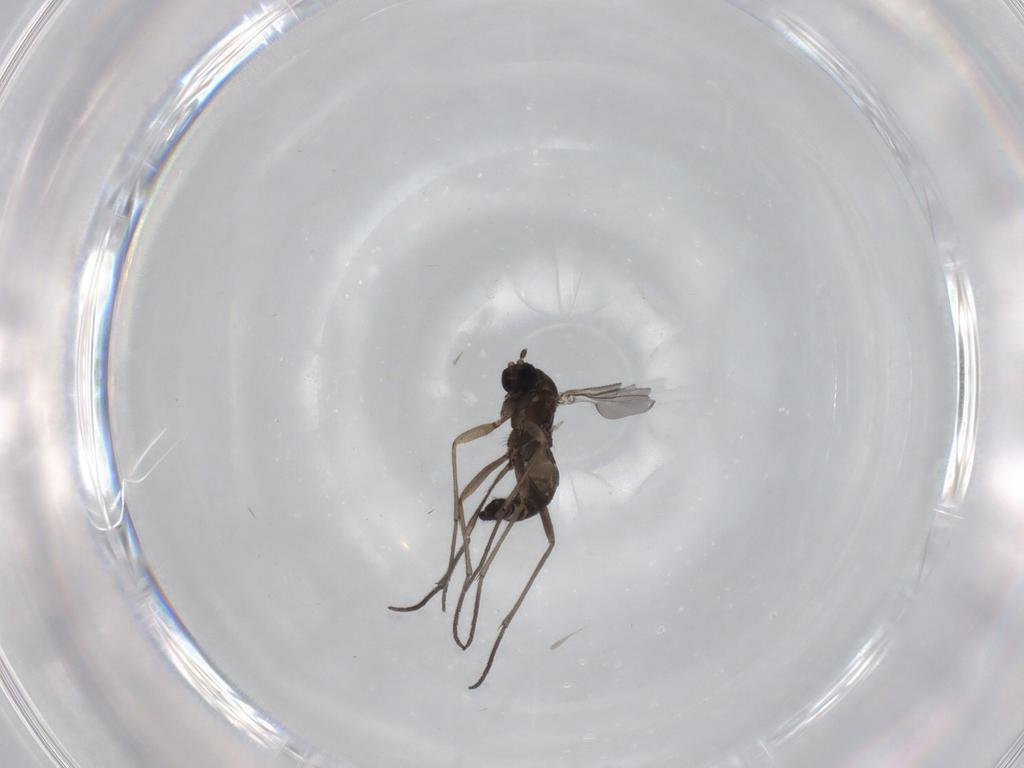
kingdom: Animalia
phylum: Arthropoda
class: Insecta
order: Diptera
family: Sciaridae
